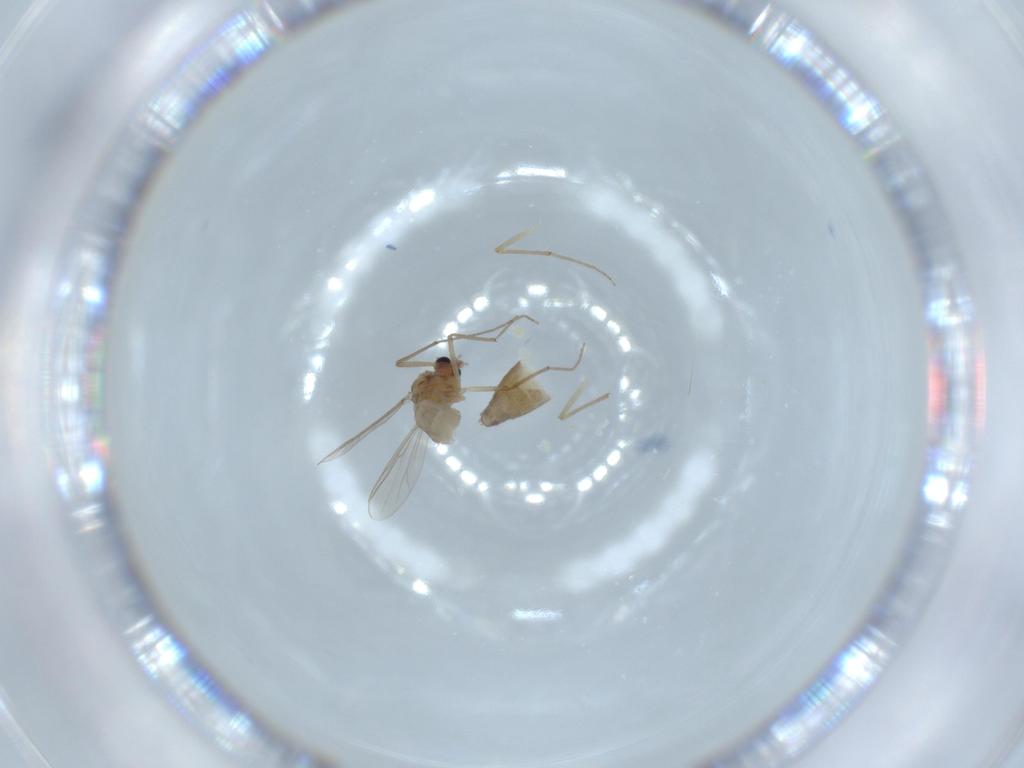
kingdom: Animalia
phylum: Arthropoda
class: Insecta
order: Diptera
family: Chironomidae
